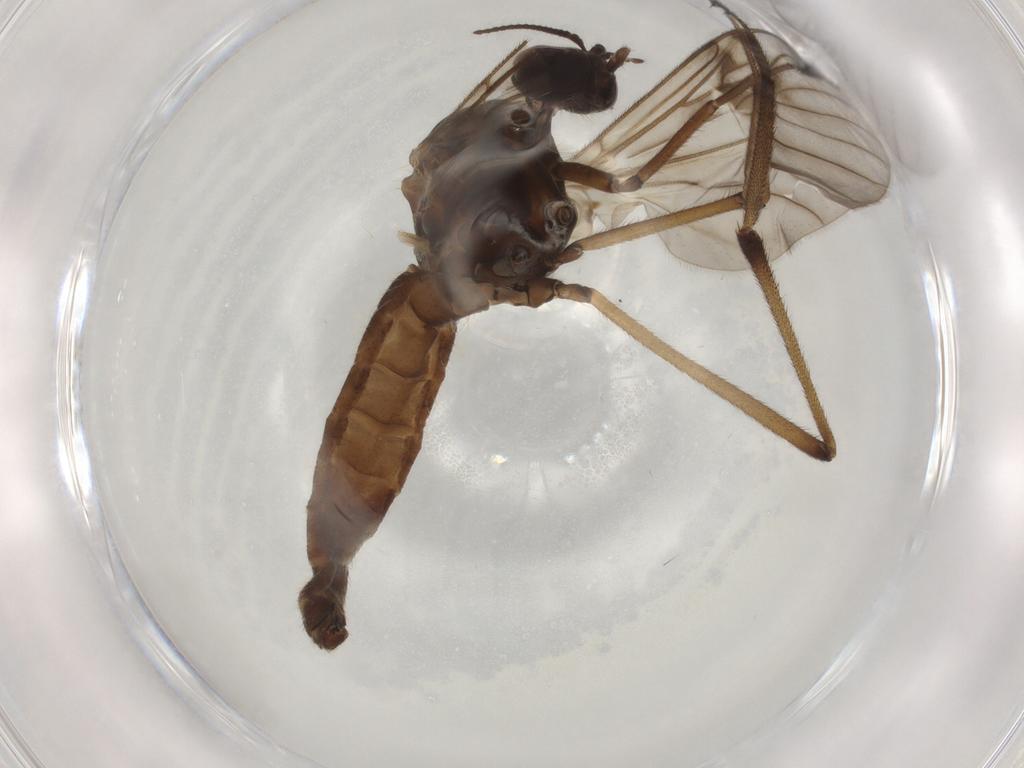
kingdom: Animalia
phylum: Arthropoda
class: Insecta
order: Diptera
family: Anisopodidae
